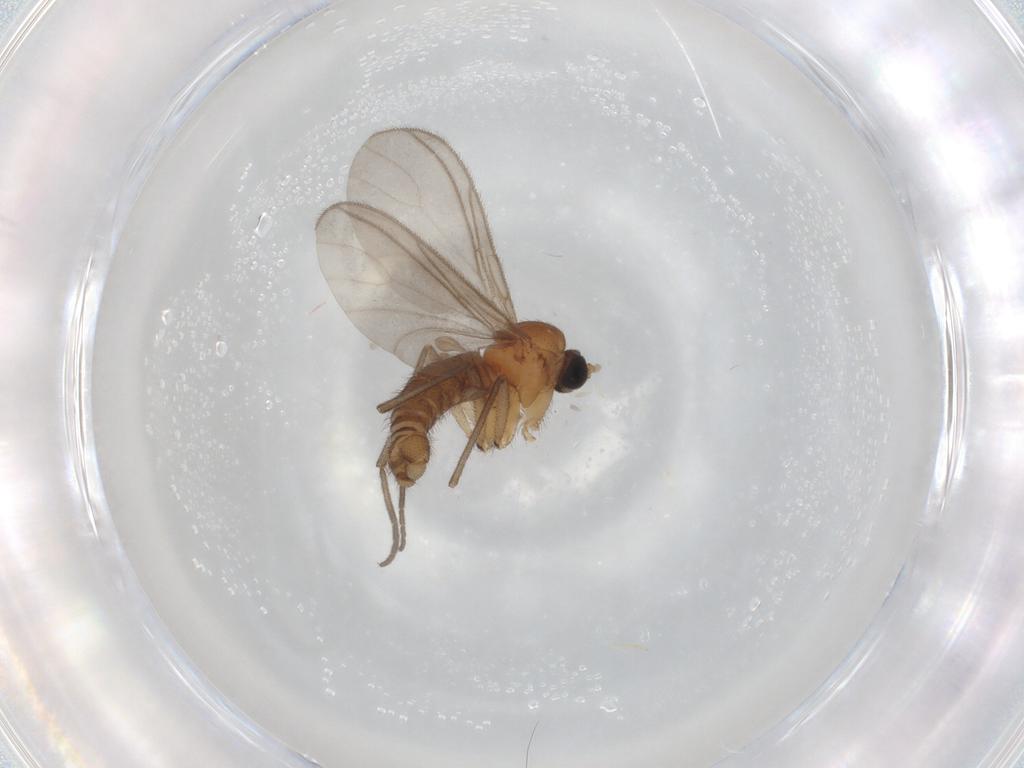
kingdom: Animalia
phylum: Arthropoda
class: Insecta
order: Diptera
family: Sciaridae
